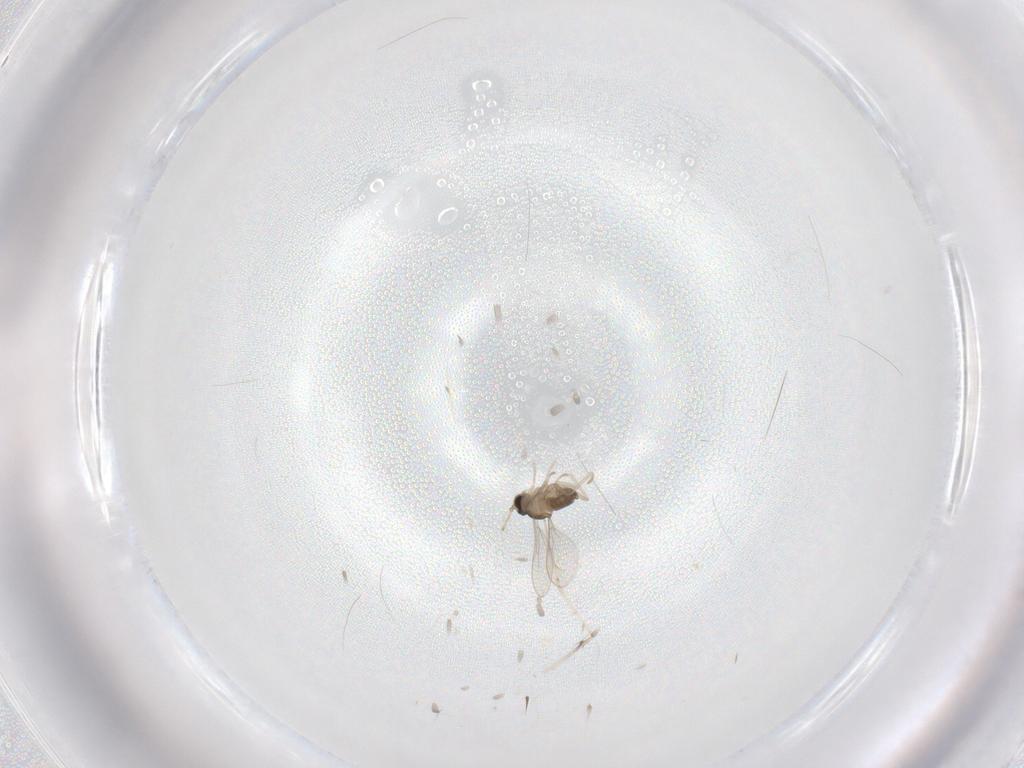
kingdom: Animalia
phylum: Arthropoda
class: Insecta
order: Diptera
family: Cecidomyiidae
